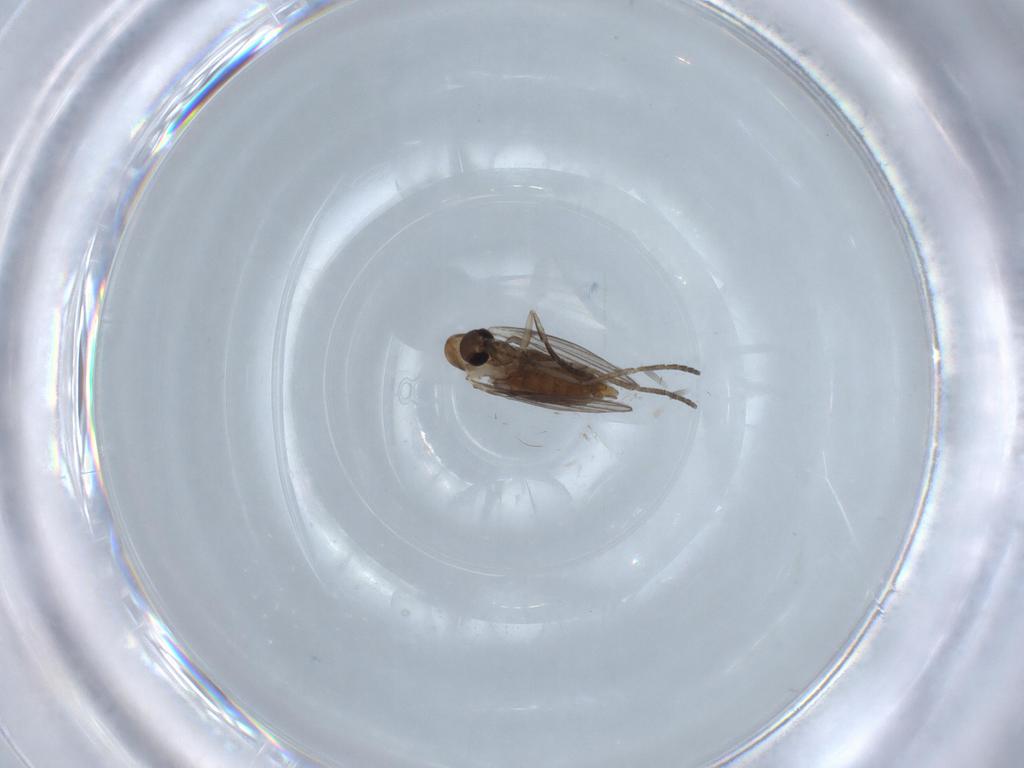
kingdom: Animalia
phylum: Arthropoda
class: Insecta
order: Diptera
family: Psychodidae
